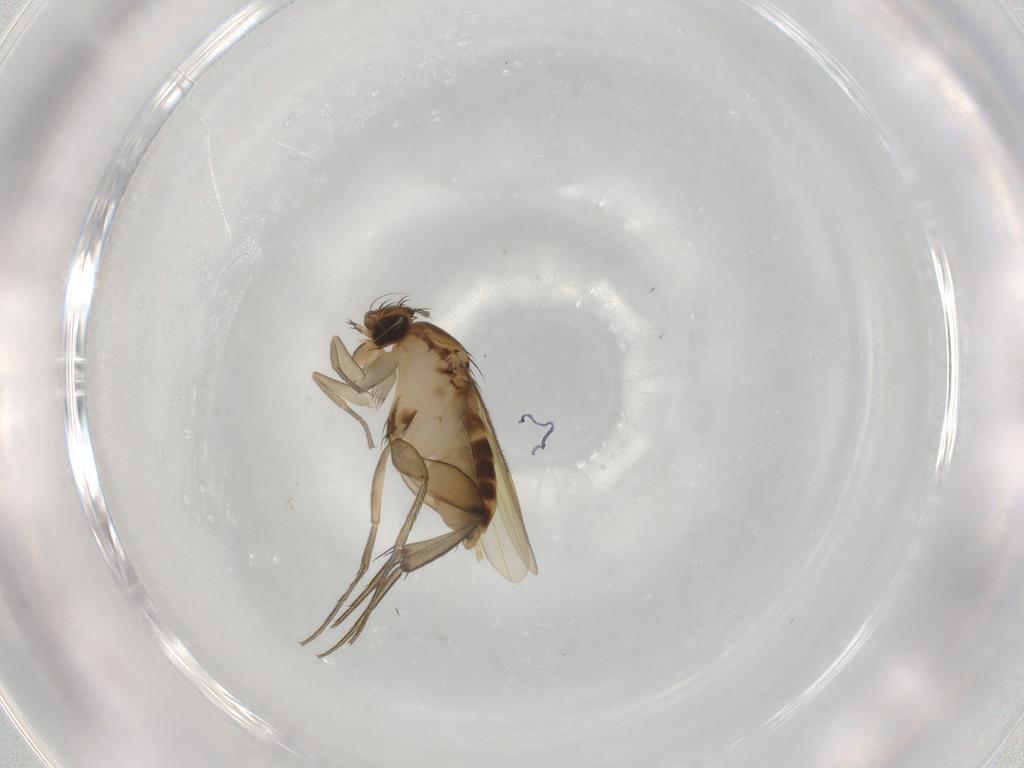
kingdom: Animalia
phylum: Arthropoda
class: Insecta
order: Diptera
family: Phoridae
